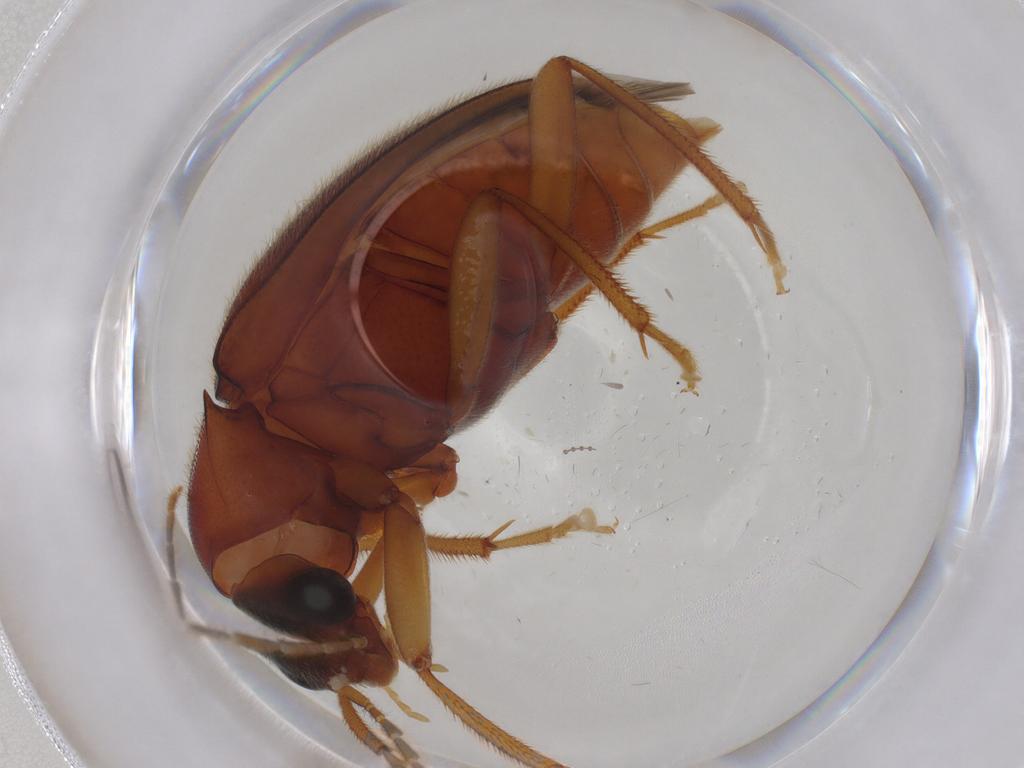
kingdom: Animalia
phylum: Arthropoda
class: Insecta
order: Coleoptera
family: Ptilodactylidae
